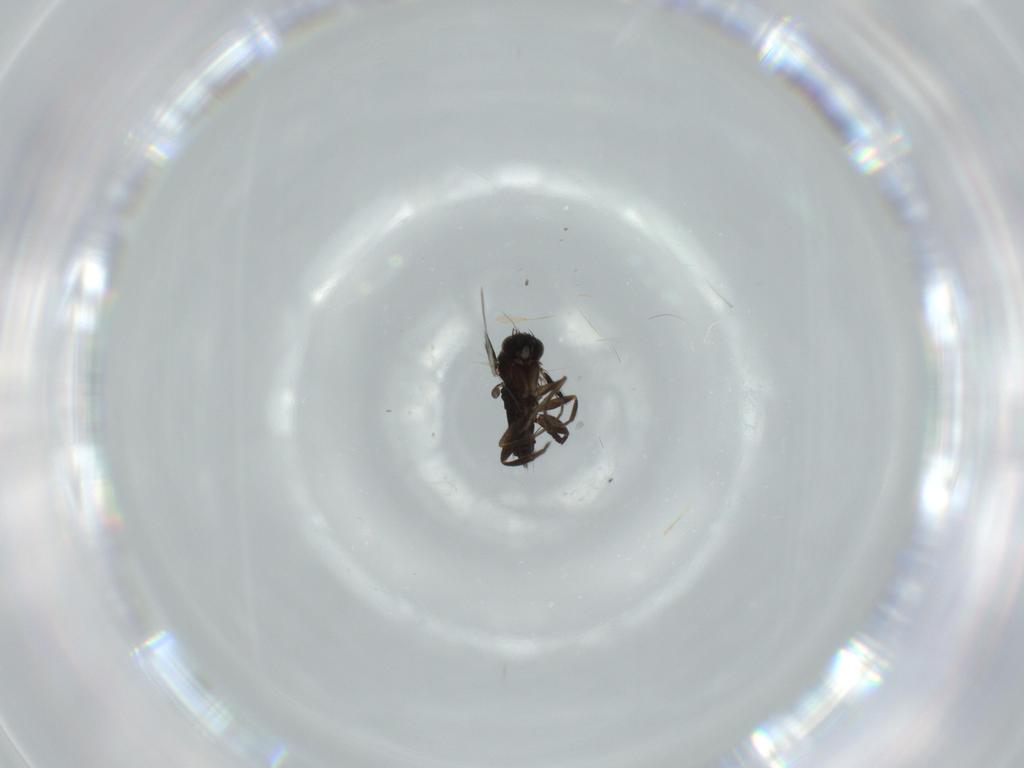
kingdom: Animalia
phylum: Arthropoda
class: Insecta
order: Diptera
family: Phoridae
